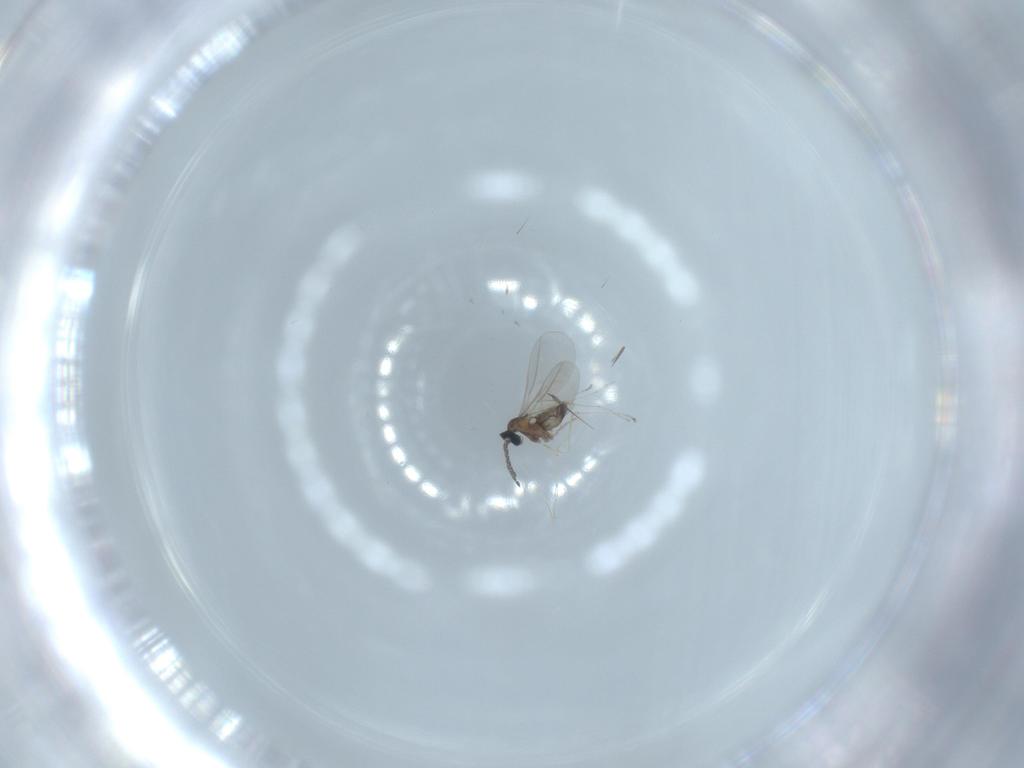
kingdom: Animalia
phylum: Arthropoda
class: Insecta
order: Diptera
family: Cecidomyiidae
